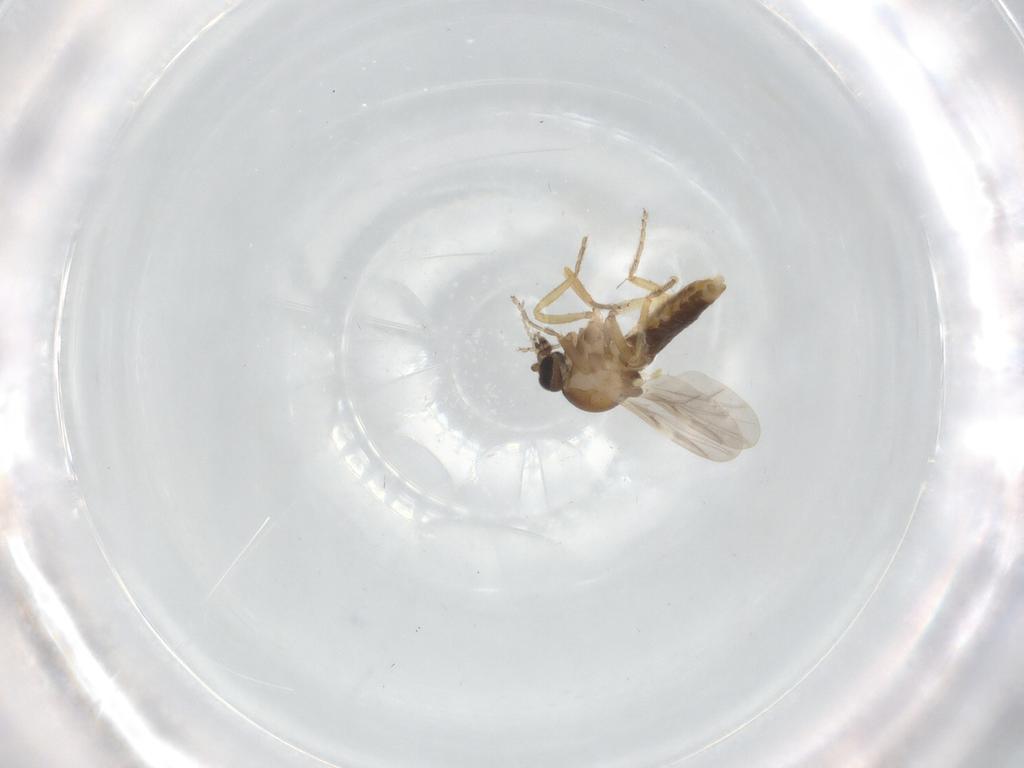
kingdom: Animalia
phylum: Arthropoda
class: Insecta
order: Diptera
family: Ceratopogonidae
